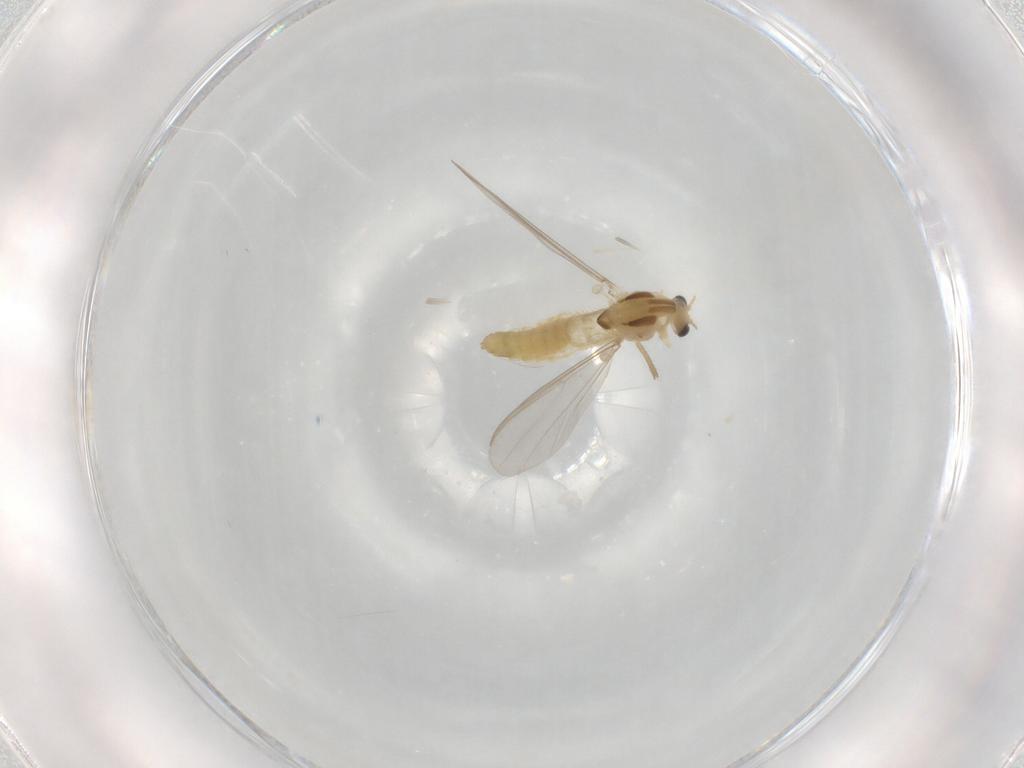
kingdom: Animalia
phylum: Arthropoda
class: Insecta
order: Diptera
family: Chironomidae
